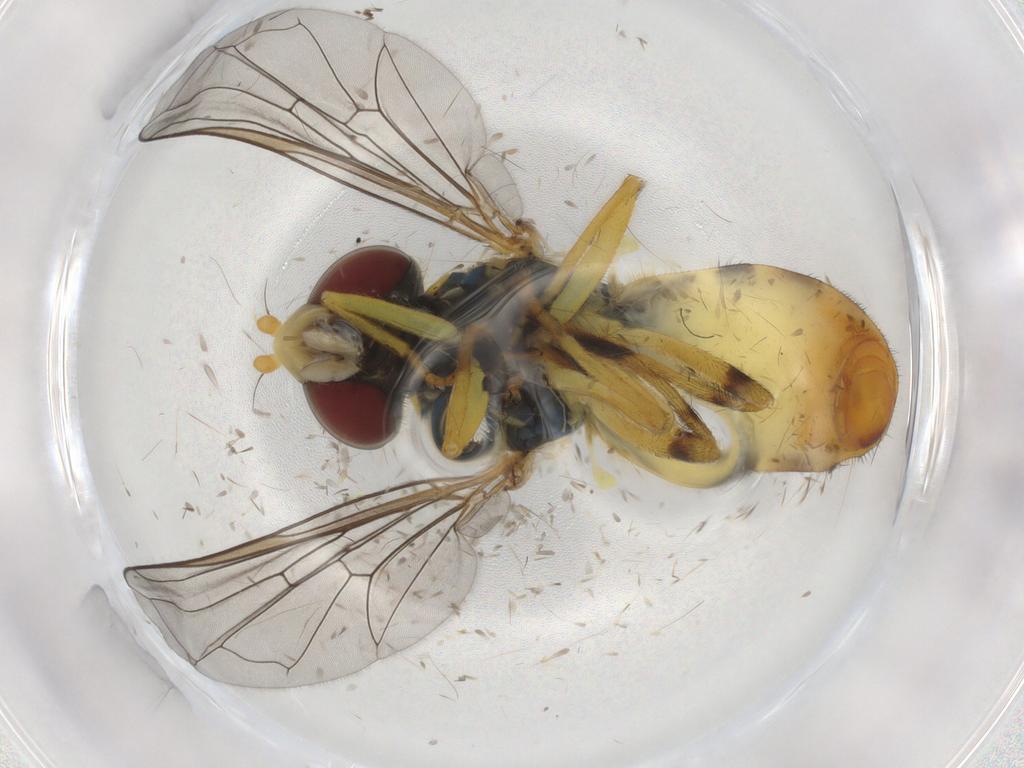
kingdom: Animalia
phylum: Arthropoda
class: Insecta
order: Diptera
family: Syrphidae
